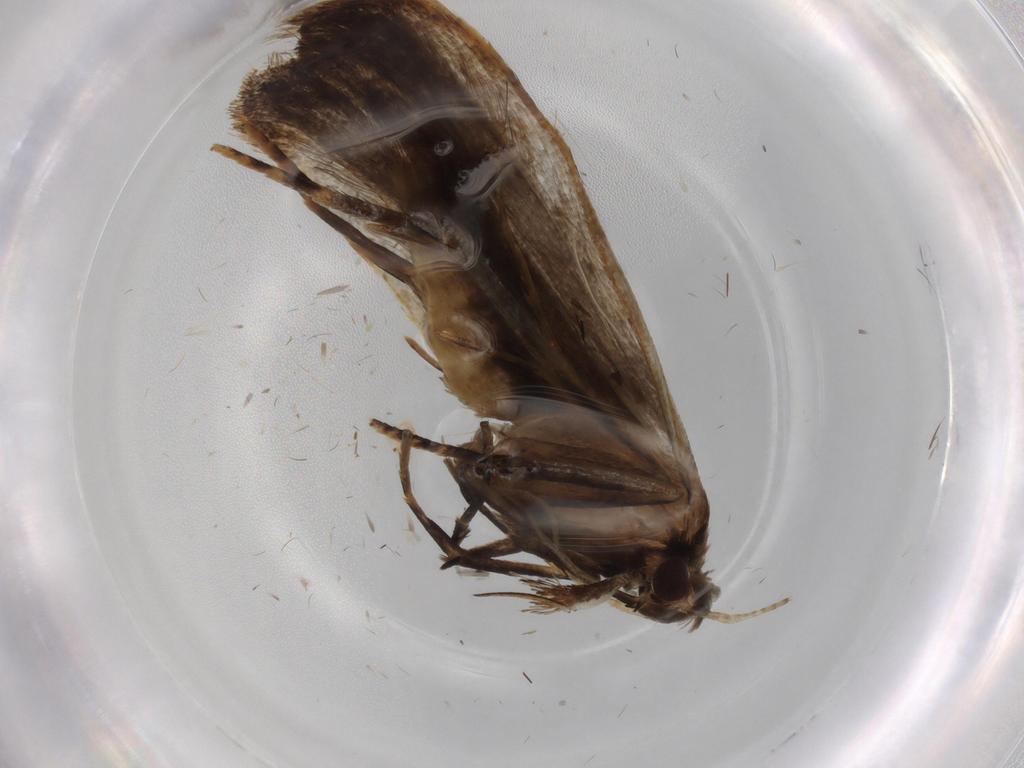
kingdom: Animalia
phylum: Arthropoda
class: Insecta
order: Lepidoptera
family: Gelechiidae
